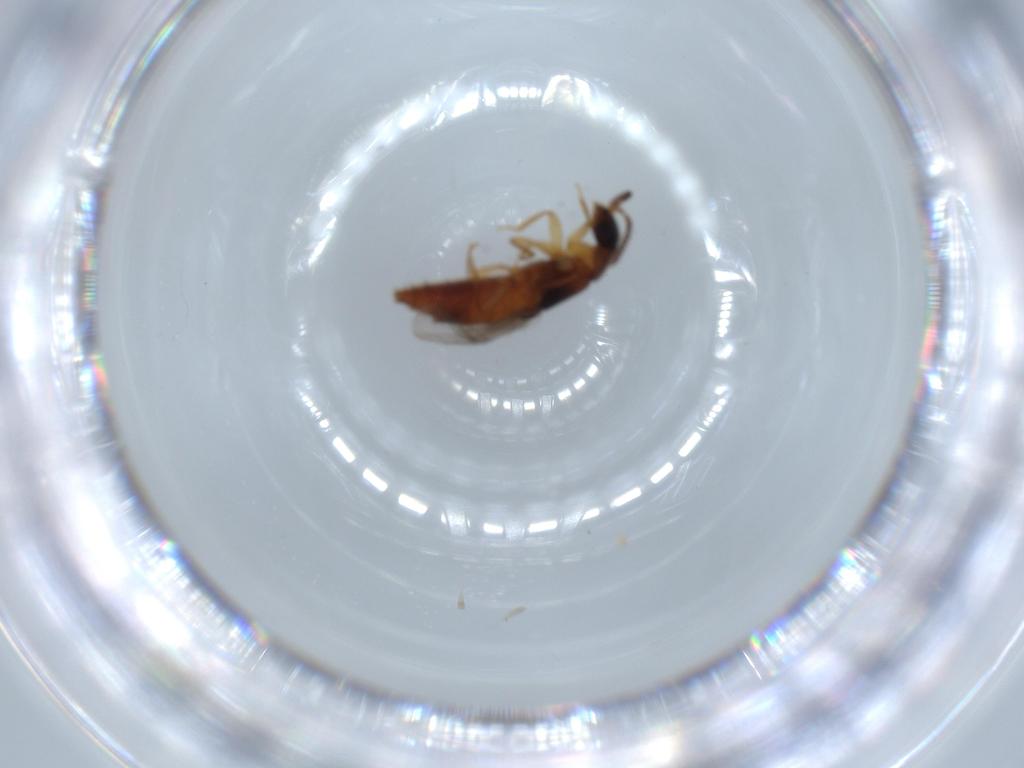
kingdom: Animalia
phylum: Arthropoda
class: Insecta
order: Coleoptera
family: Staphylinidae
